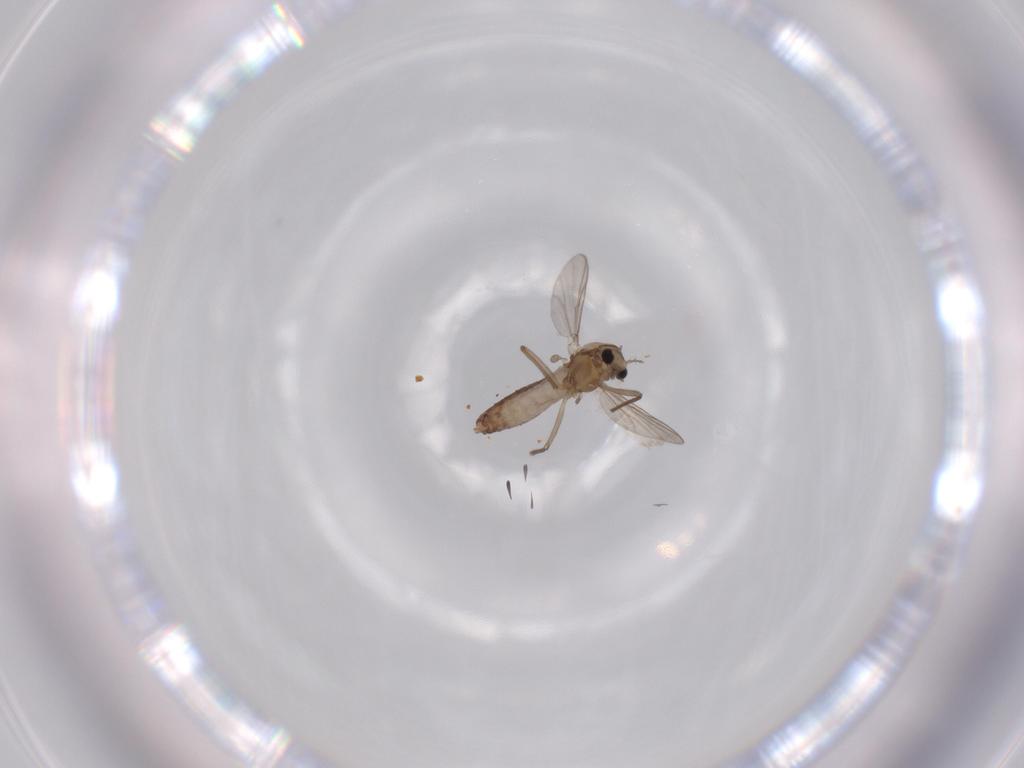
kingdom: Animalia
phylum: Arthropoda
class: Insecta
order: Diptera
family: Chironomidae
